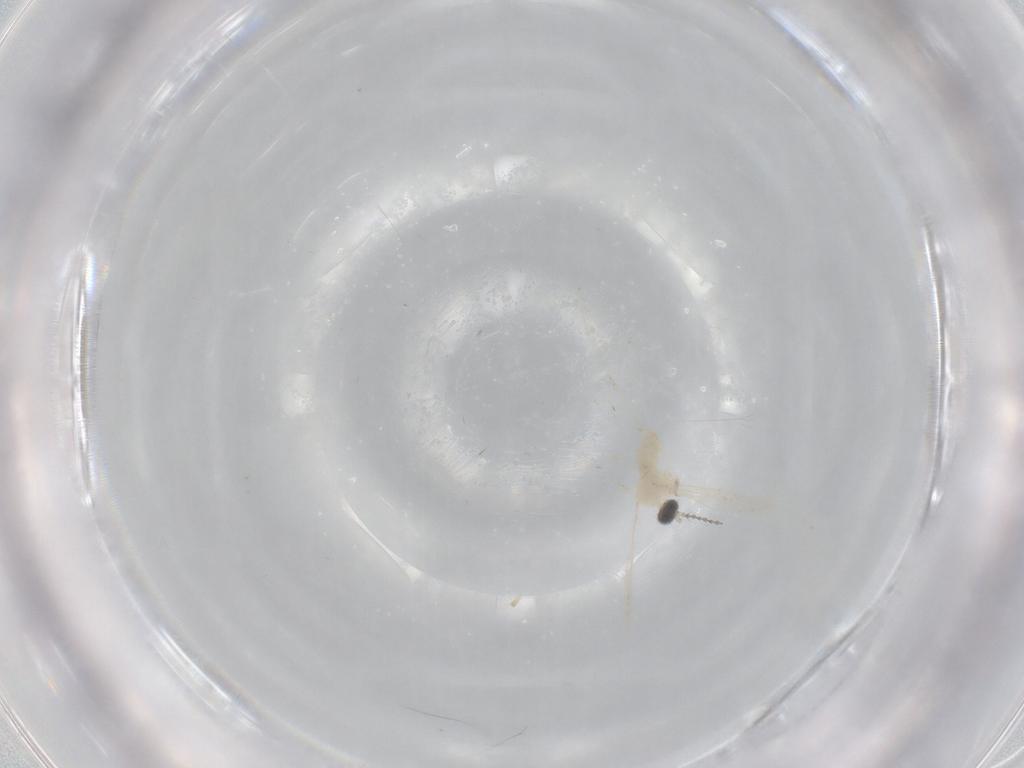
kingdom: Animalia
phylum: Arthropoda
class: Insecta
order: Diptera
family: Cecidomyiidae
